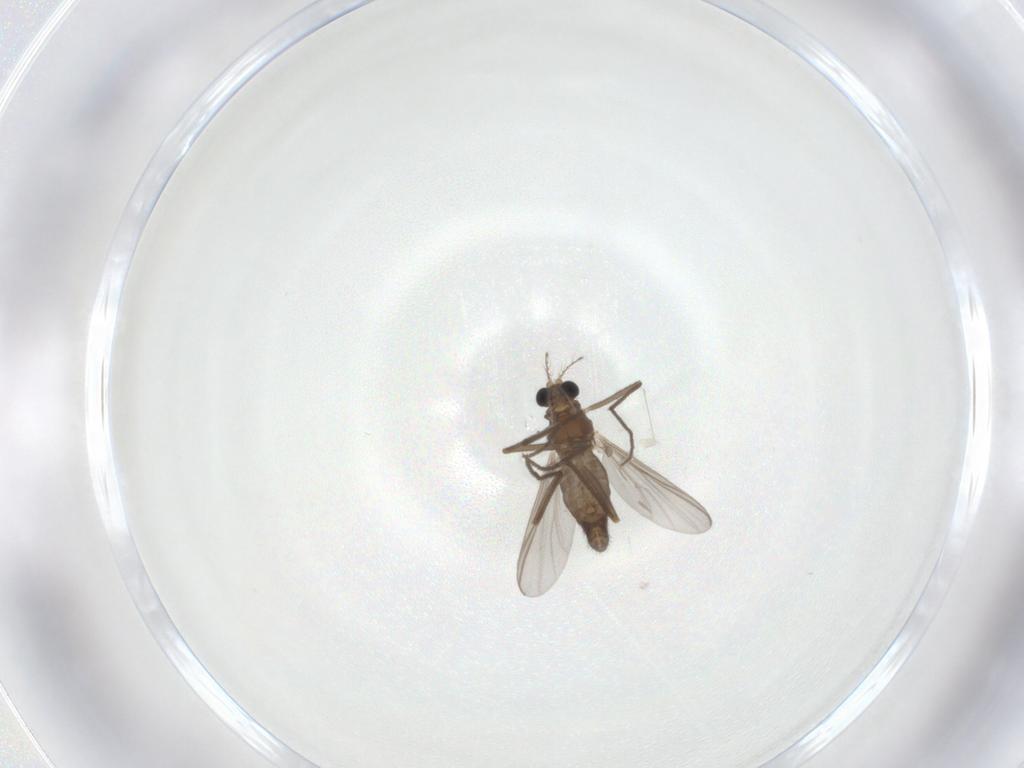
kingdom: Animalia
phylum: Arthropoda
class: Insecta
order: Diptera
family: Chironomidae
